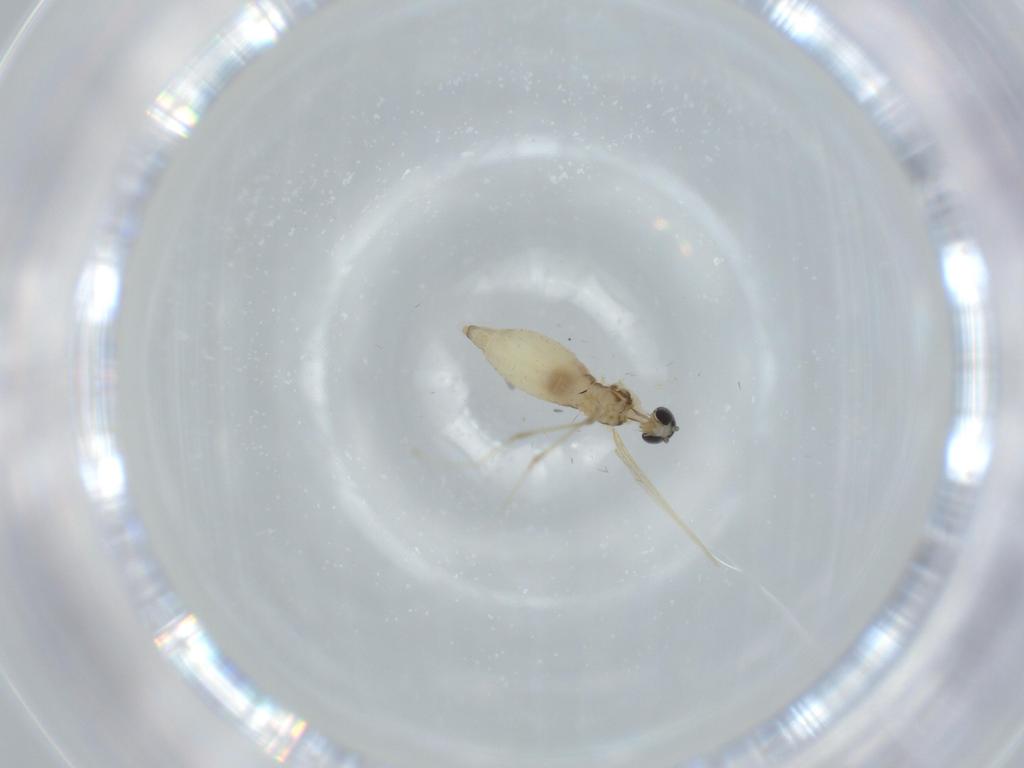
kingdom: Animalia
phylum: Arthropoda
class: Insecta
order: Diptera
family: Cecidomyiidae
